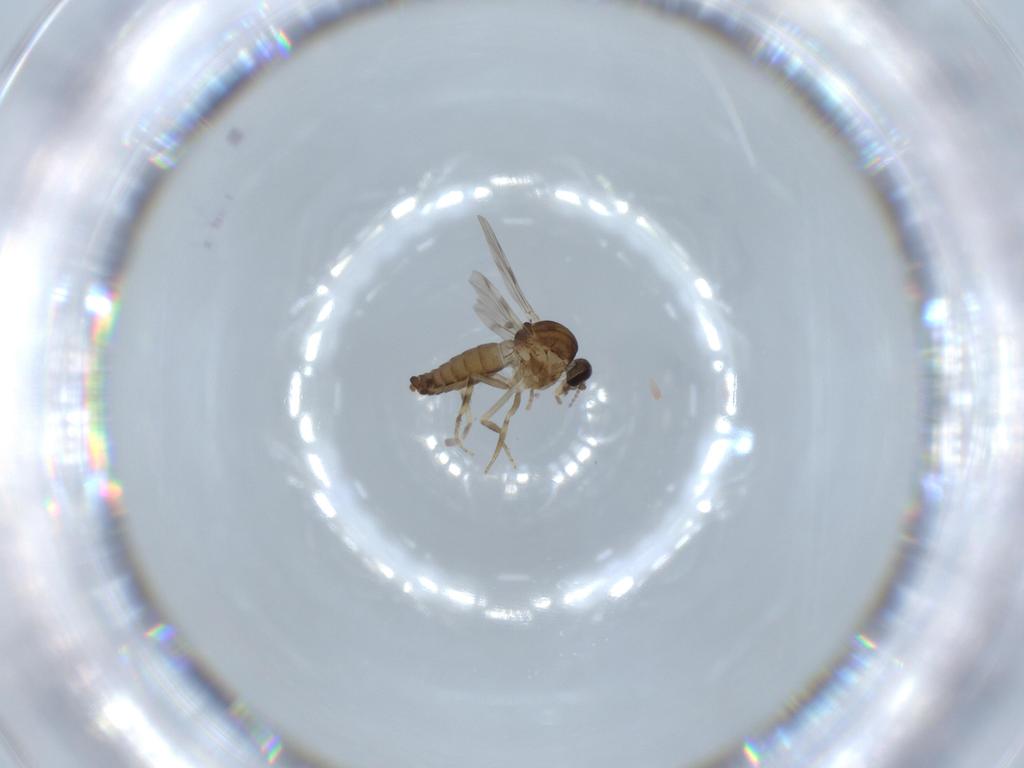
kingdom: Animalia
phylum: Arthropoda
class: Insecta
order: Diptera
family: Ceratopogonidae
